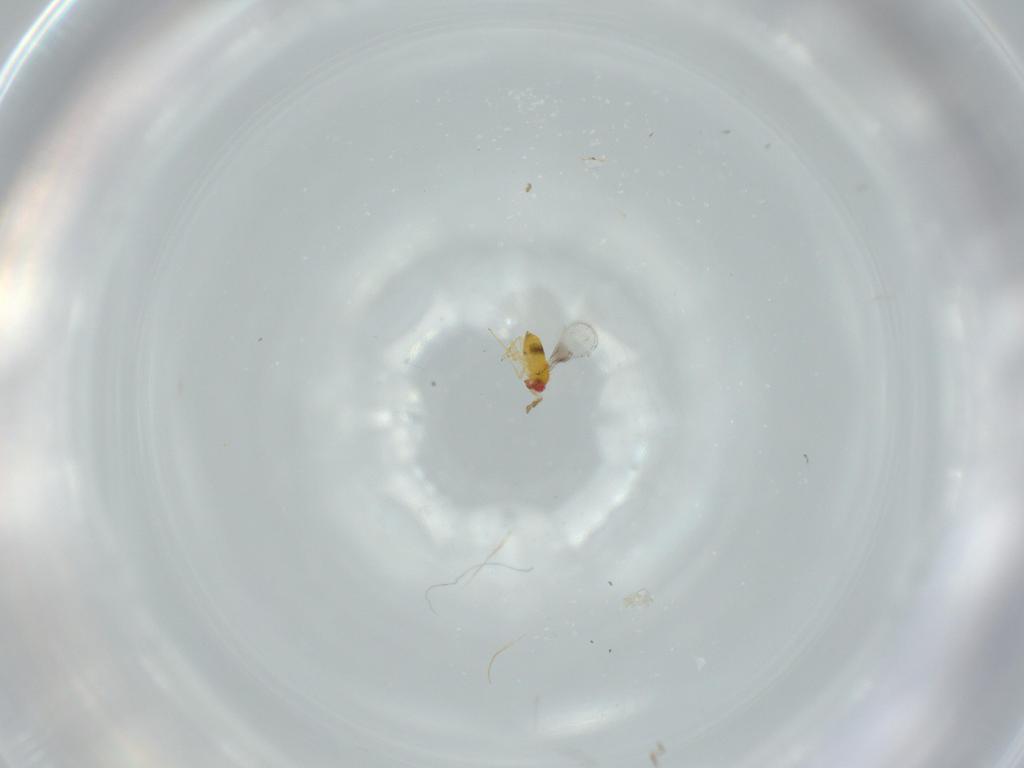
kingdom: Animalia
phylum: Arthropoda
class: Insecta
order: Hymenoptera
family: Trichogrammatidae
